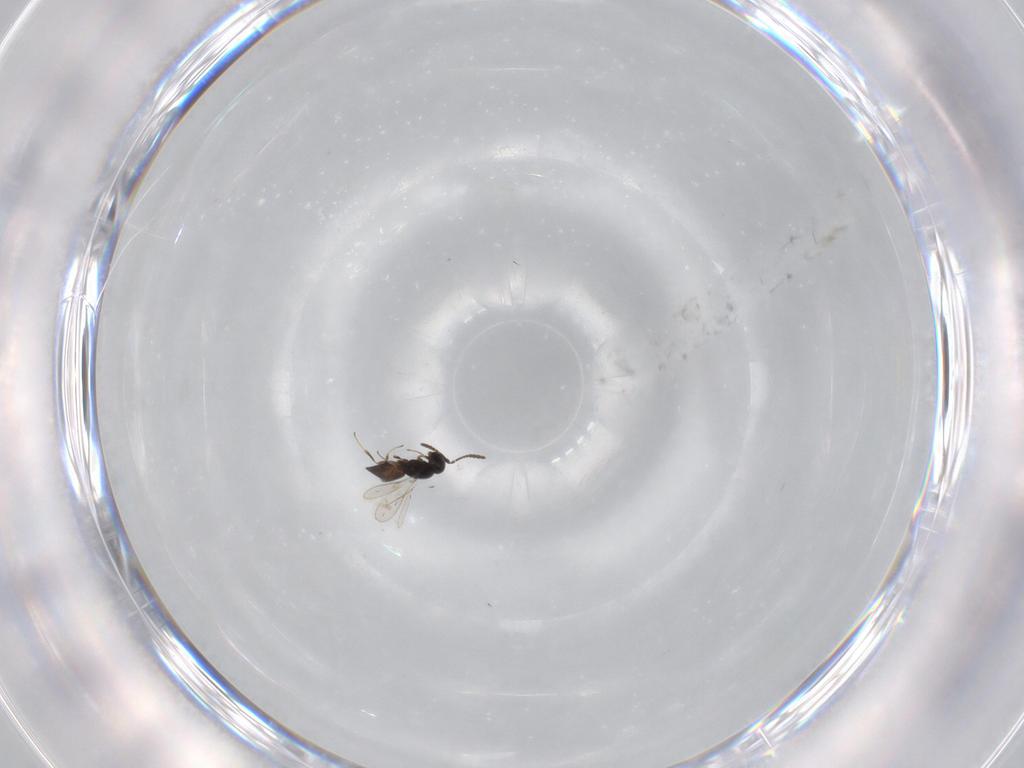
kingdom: Animalia
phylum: Arthropoda
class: Insecta
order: Hymenoptera
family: Scelionidae
